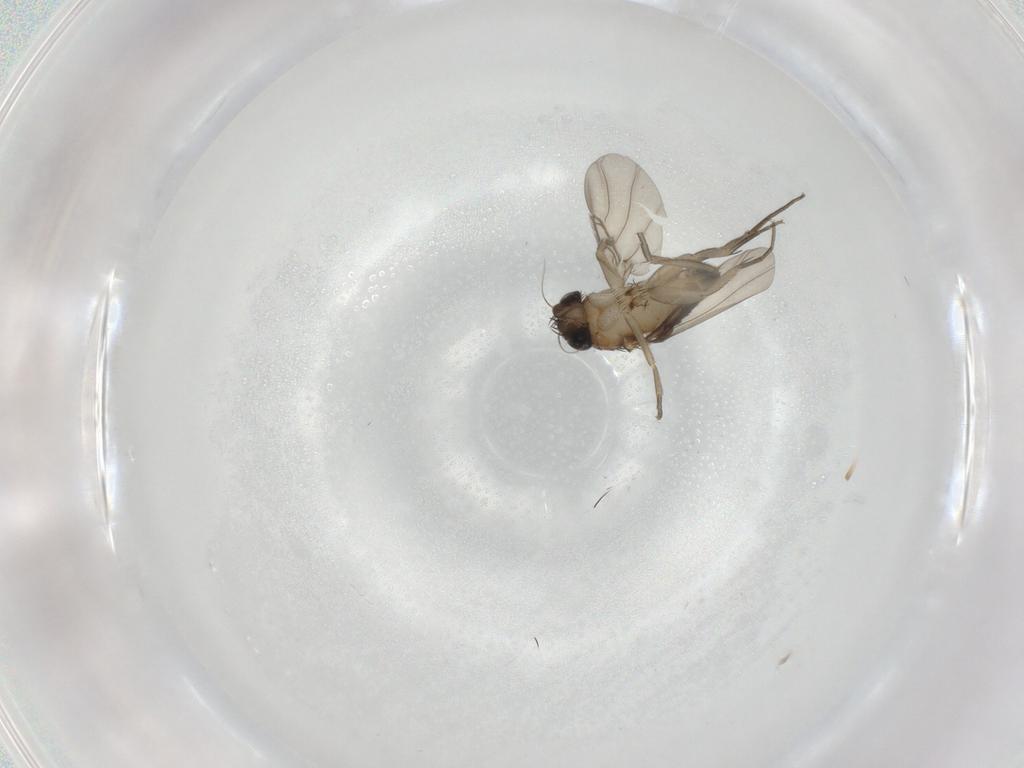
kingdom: Animalia
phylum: Arthropoda
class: Insecta
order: Diptera
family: Phoridae
